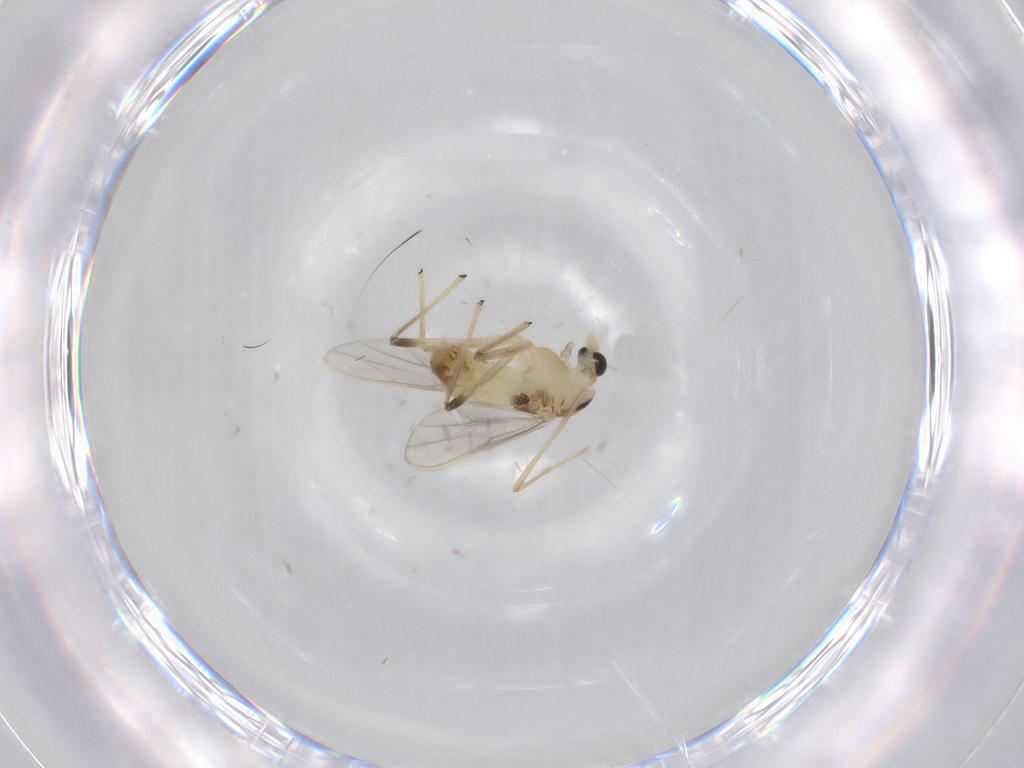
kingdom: Animalia
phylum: Arthropoda
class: Insecta
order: Diptera
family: Chironomidae
